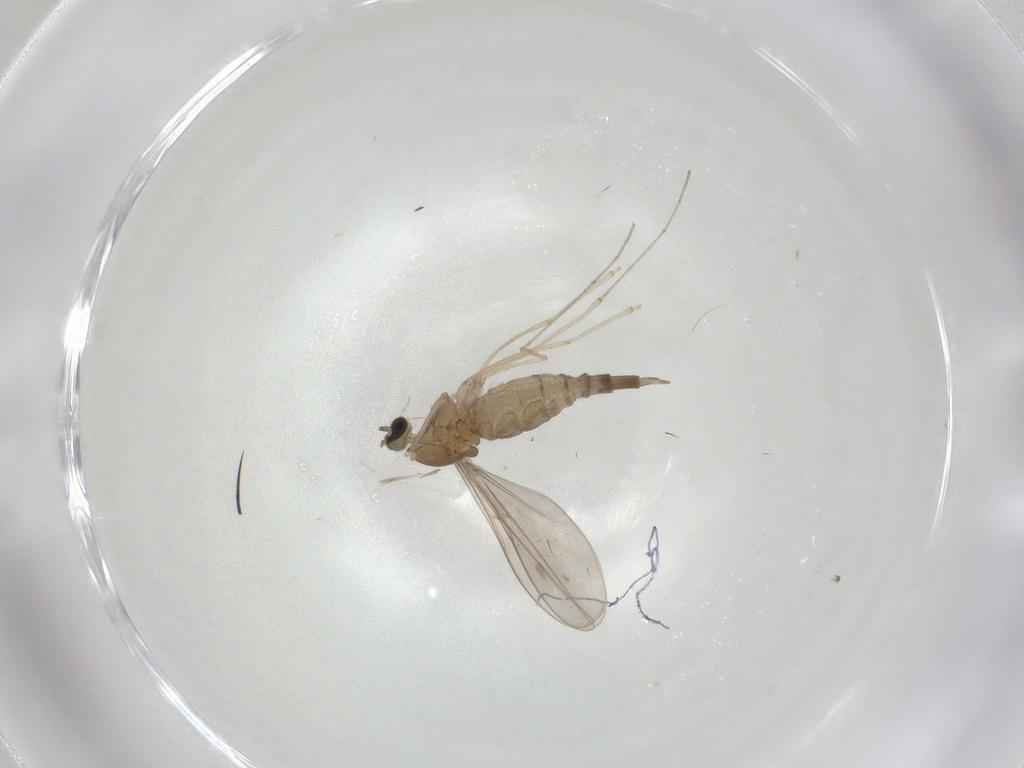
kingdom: Animalia
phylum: Arthropoda
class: Insecta
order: Diptera
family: Cecidomyiidae
